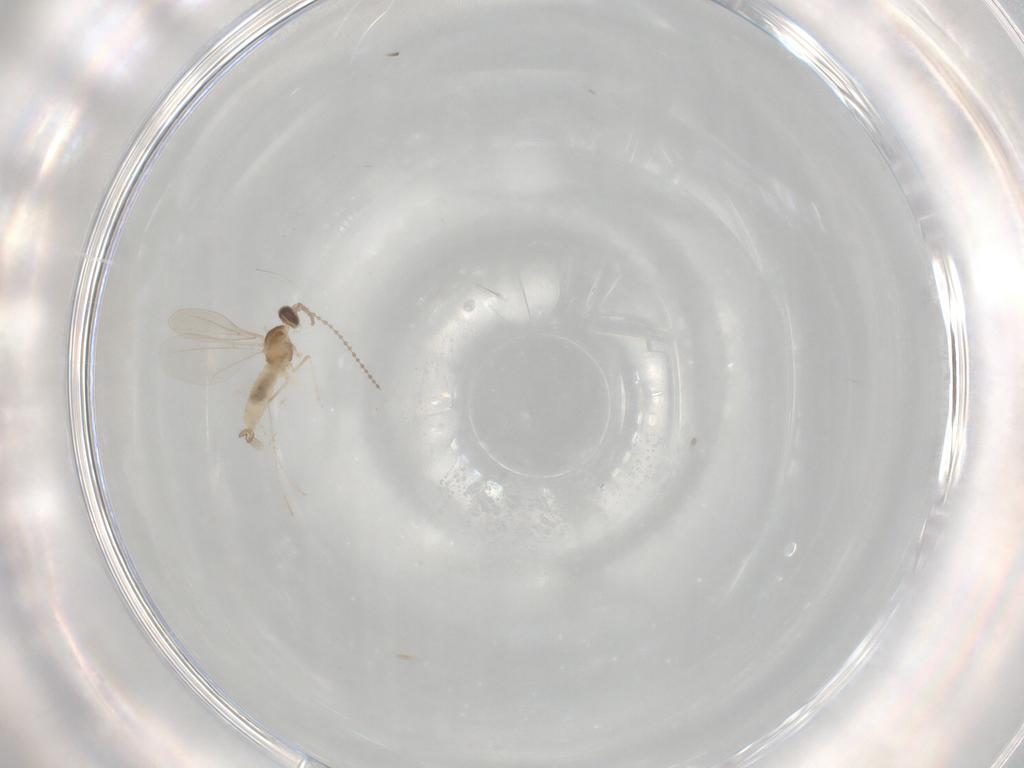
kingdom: Animalia
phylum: Arthropoda
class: Insecta
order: Diptera
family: Cecidomyiidae
